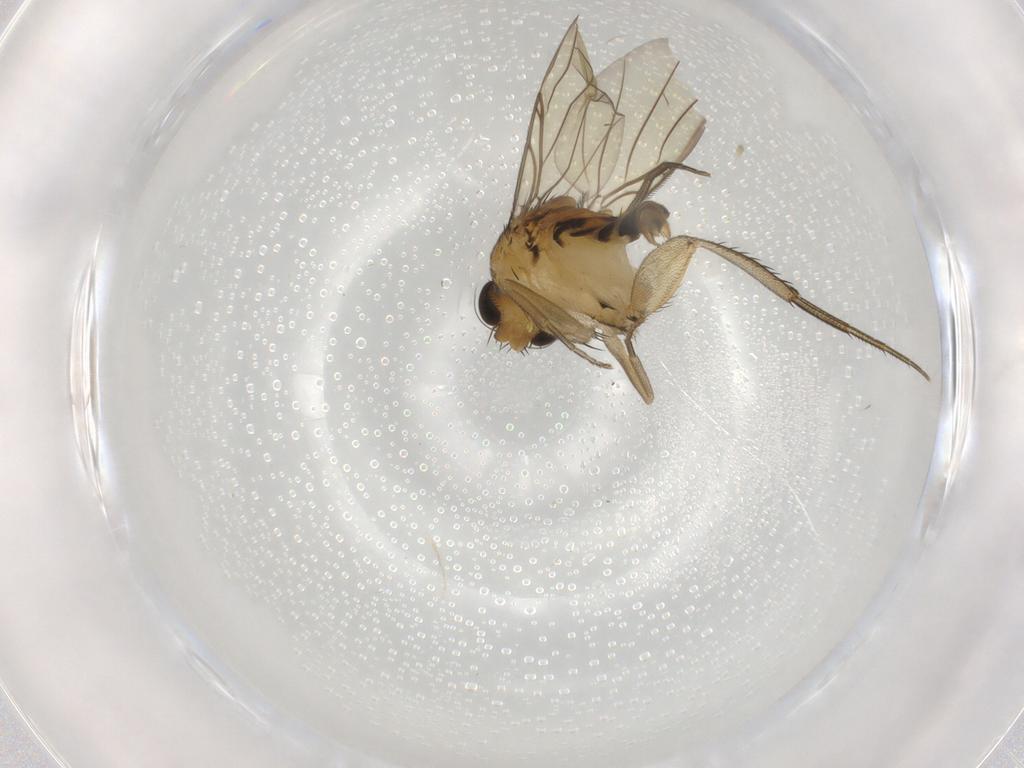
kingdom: Animalia
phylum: Arthropoda
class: Insecta
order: Diptera
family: Phoridae
